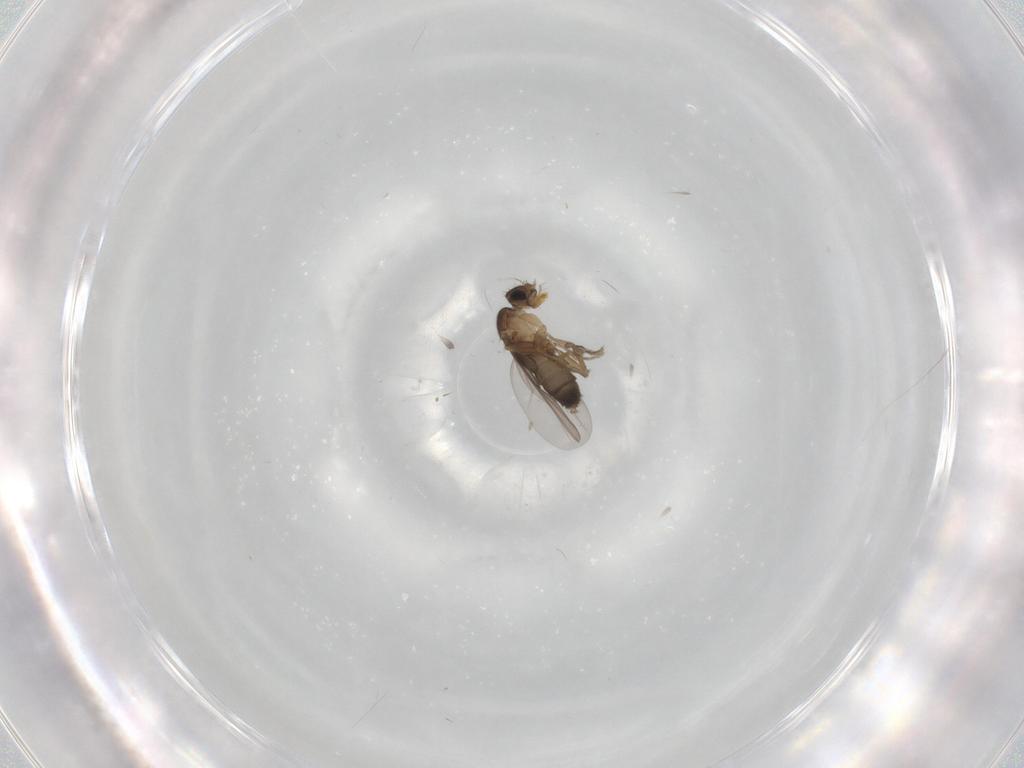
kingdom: Animalia
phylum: Arthropoda
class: Insecta
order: Diptera
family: Phoridae
